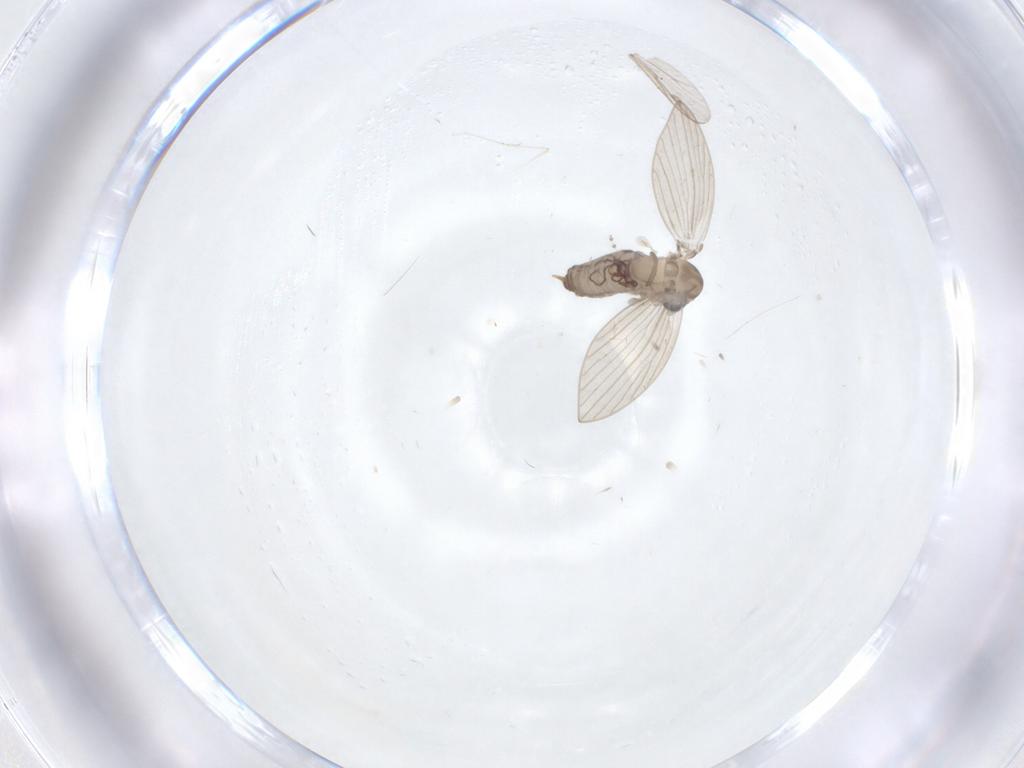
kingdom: Animalia
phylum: Arthropoda
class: Insecta
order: Diptera
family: Psychodidae
